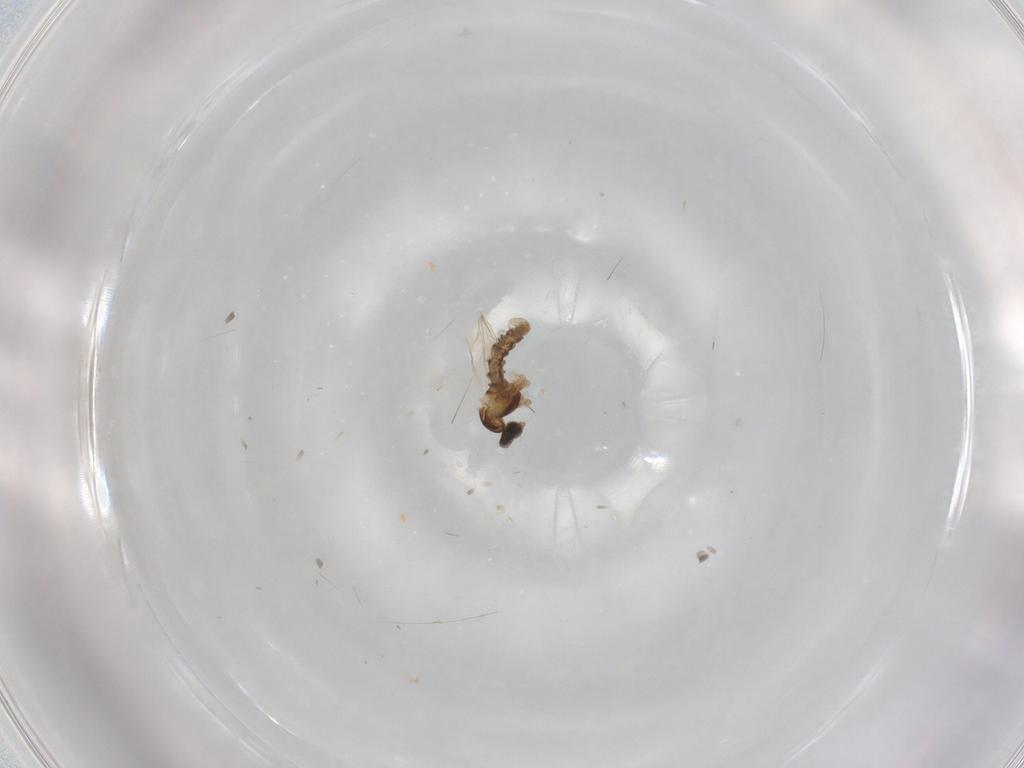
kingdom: Animalia
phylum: Arthropoda
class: Insecta
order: Diptera
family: Cecidomyiidae
